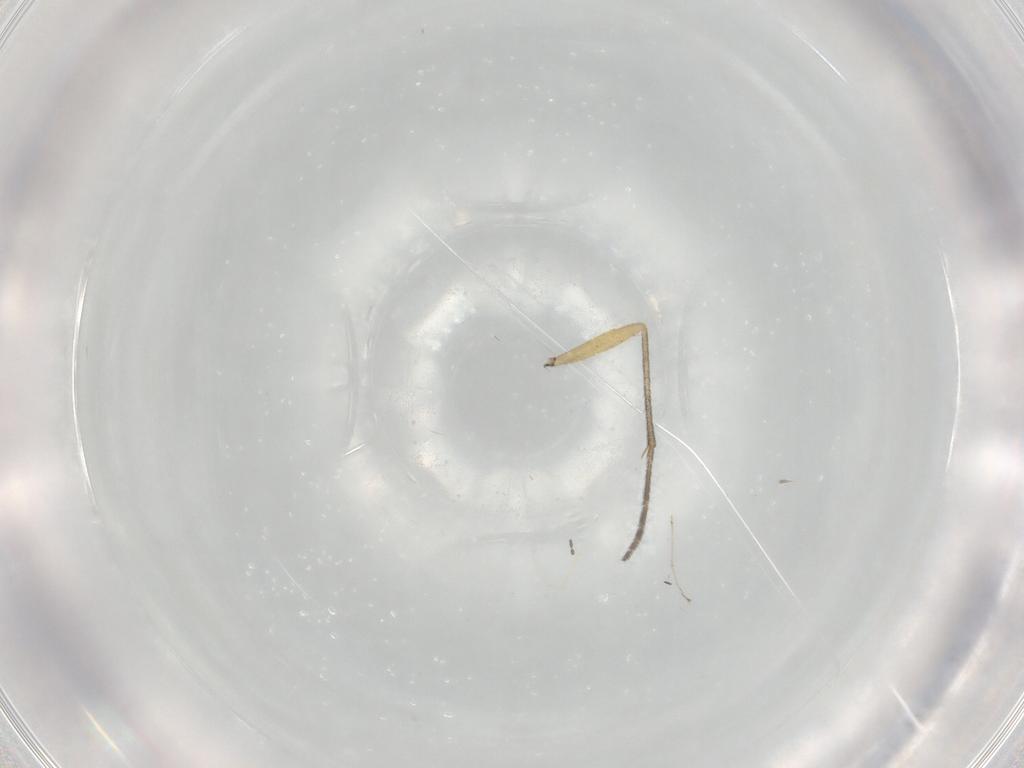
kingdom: Animalia
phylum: Arthropoda
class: Insecta
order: Diptera
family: Sciaridae
